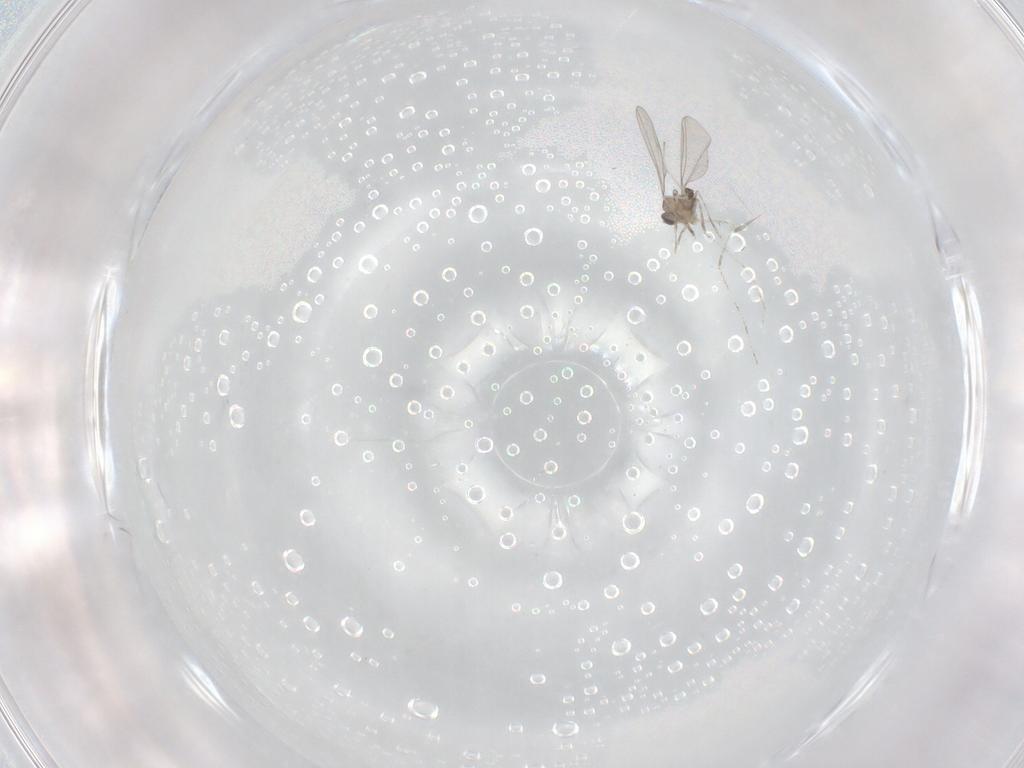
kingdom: Animalia
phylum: Arthropoda
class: Insecta
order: Diptera
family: Cecidomyiidae
